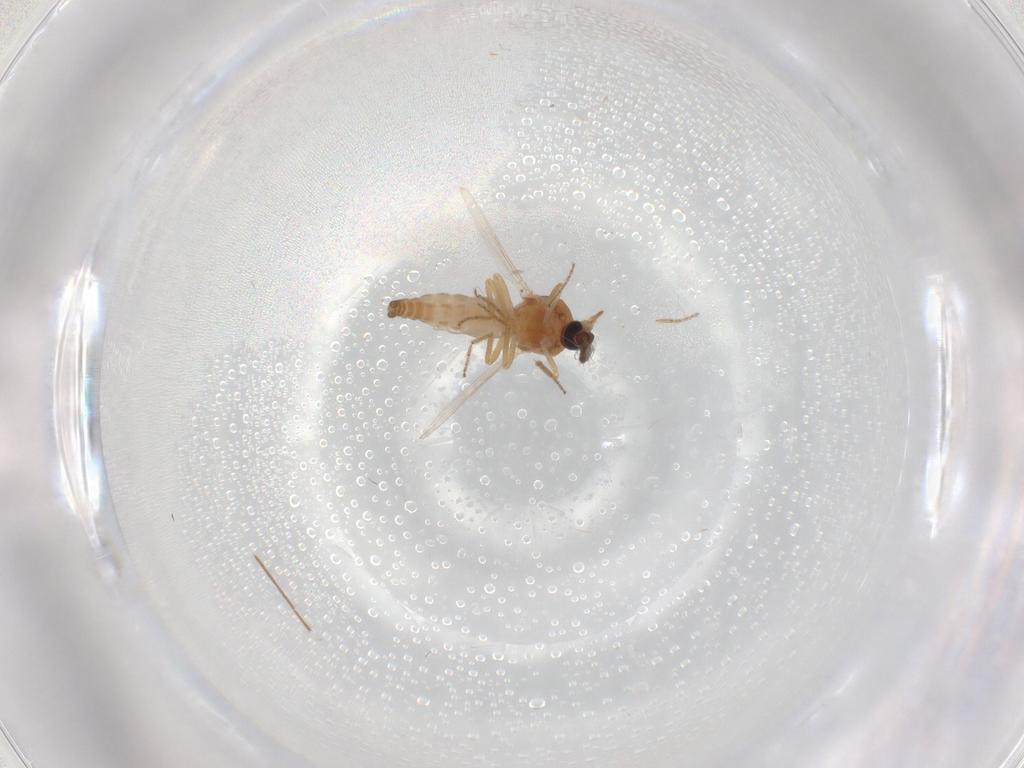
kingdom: Animalia
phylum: Arthropoda
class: Insecta
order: Diptera
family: Ceratopogonidae
